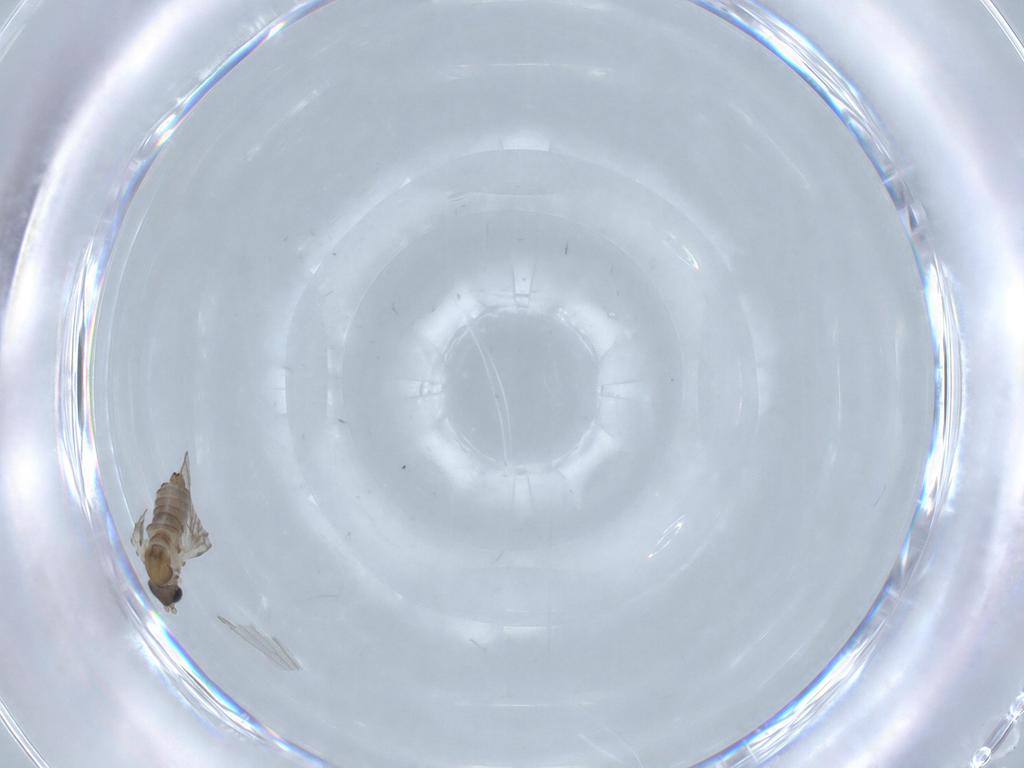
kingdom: Animalia
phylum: Arthropoda
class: Insecta
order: Diptera
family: Psychodidae
